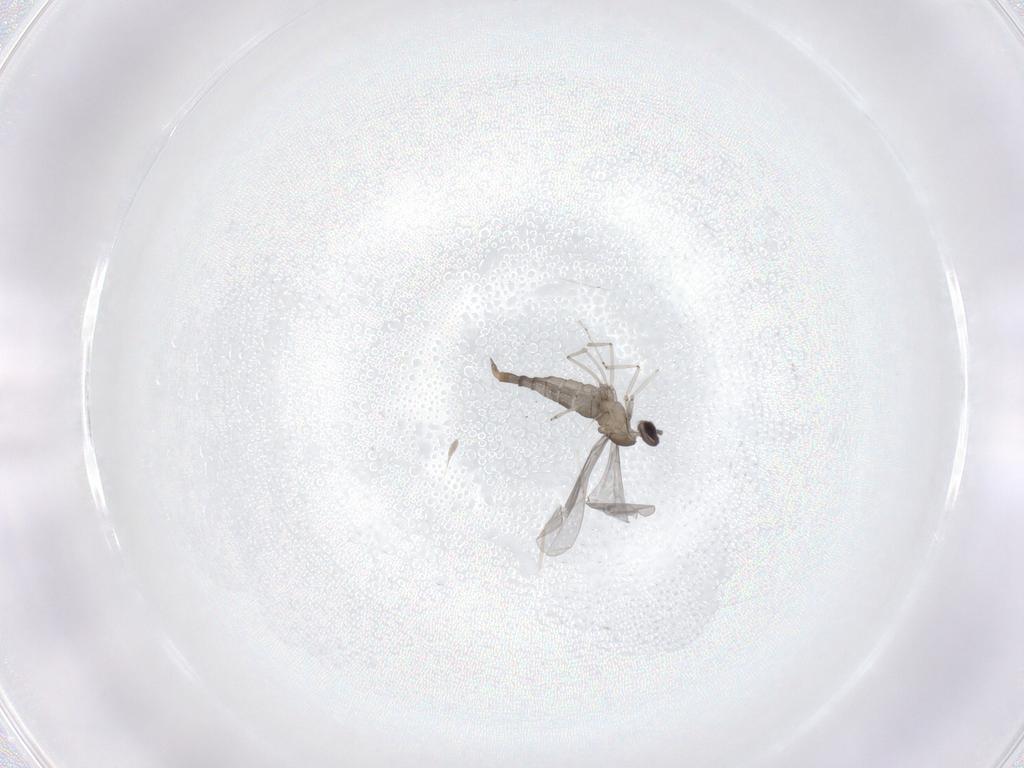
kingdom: Animalia
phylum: Arthropoda
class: Insecta
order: Diptera
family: Cecidomyiidae
